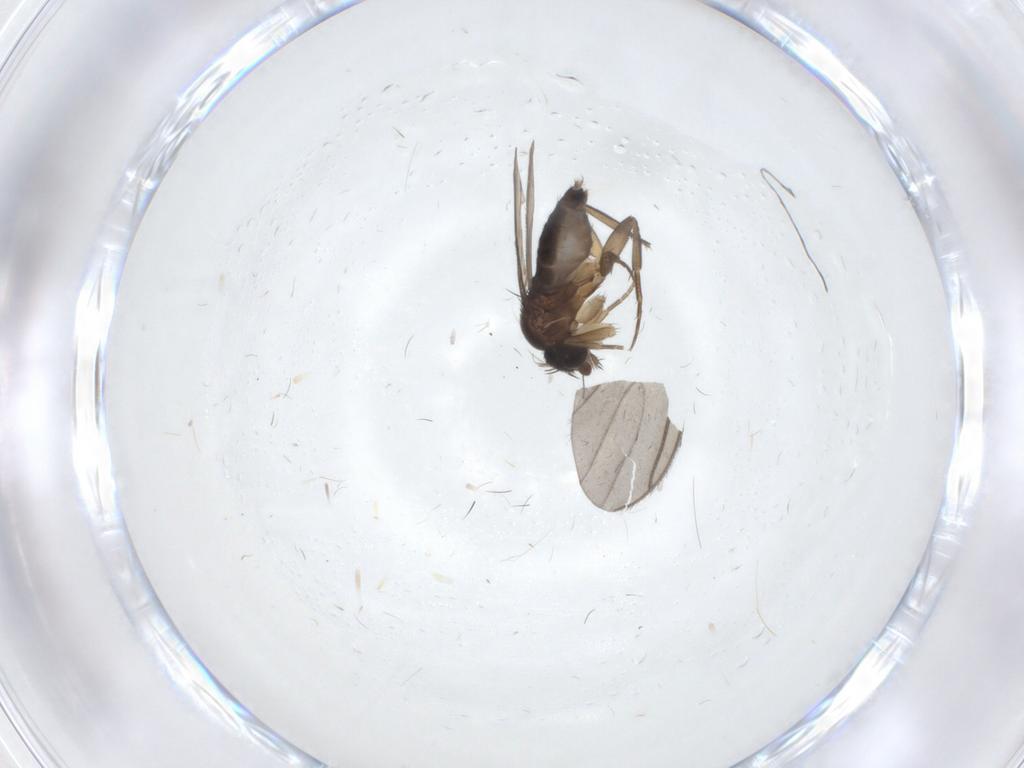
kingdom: Animalia
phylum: Arthropoda
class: Insecta
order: Diptera
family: Phoridae
